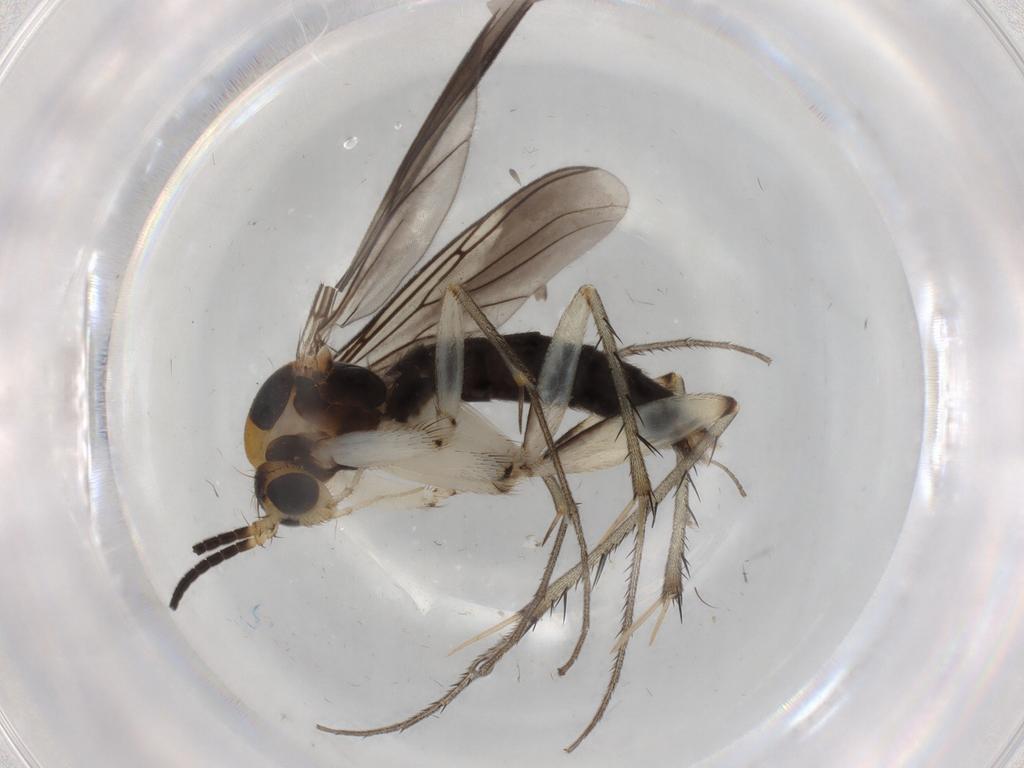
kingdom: Animalia
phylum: Arthropoda
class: Insecta
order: Diptera
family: Mycetophilidae
